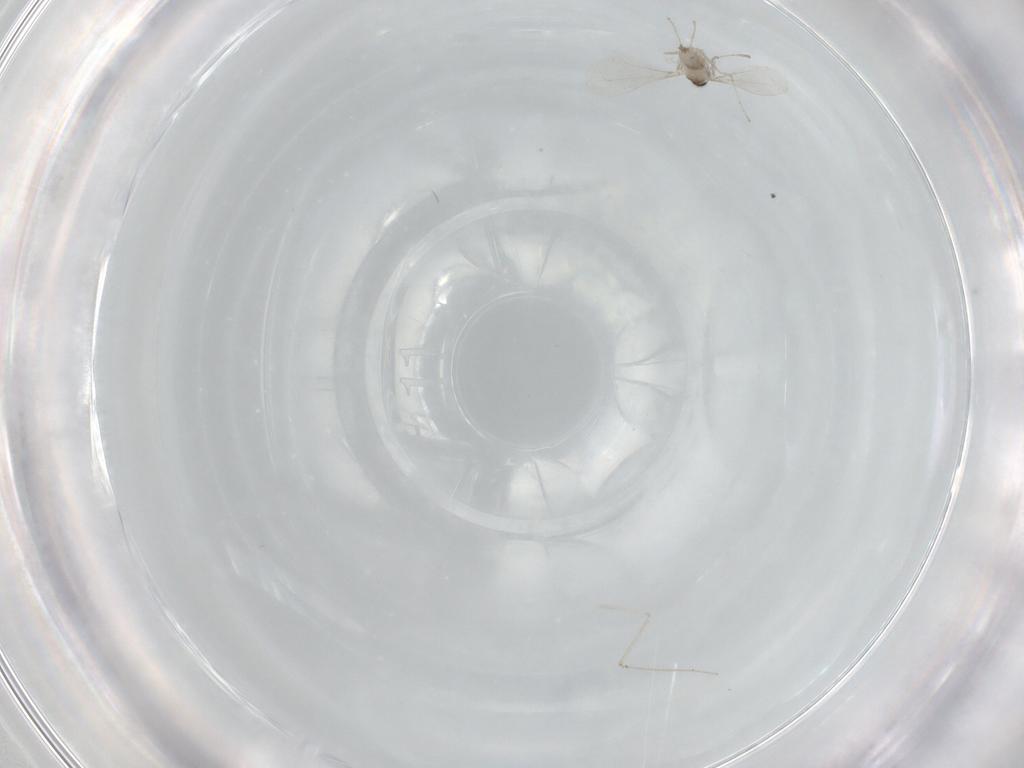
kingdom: Animalia
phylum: Arthropoda
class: Insecta
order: Diptera
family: Cecidomyiidae
